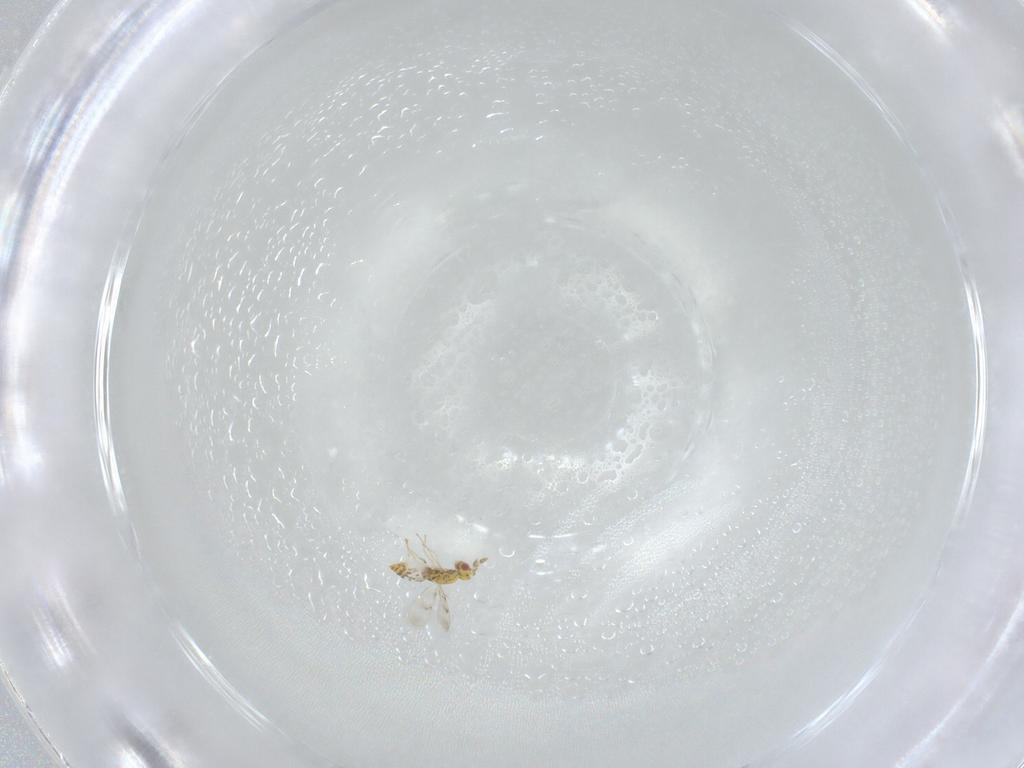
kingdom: Animalia
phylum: Arthropoda
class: Insecta
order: Hymenoptera
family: Eulophidae
